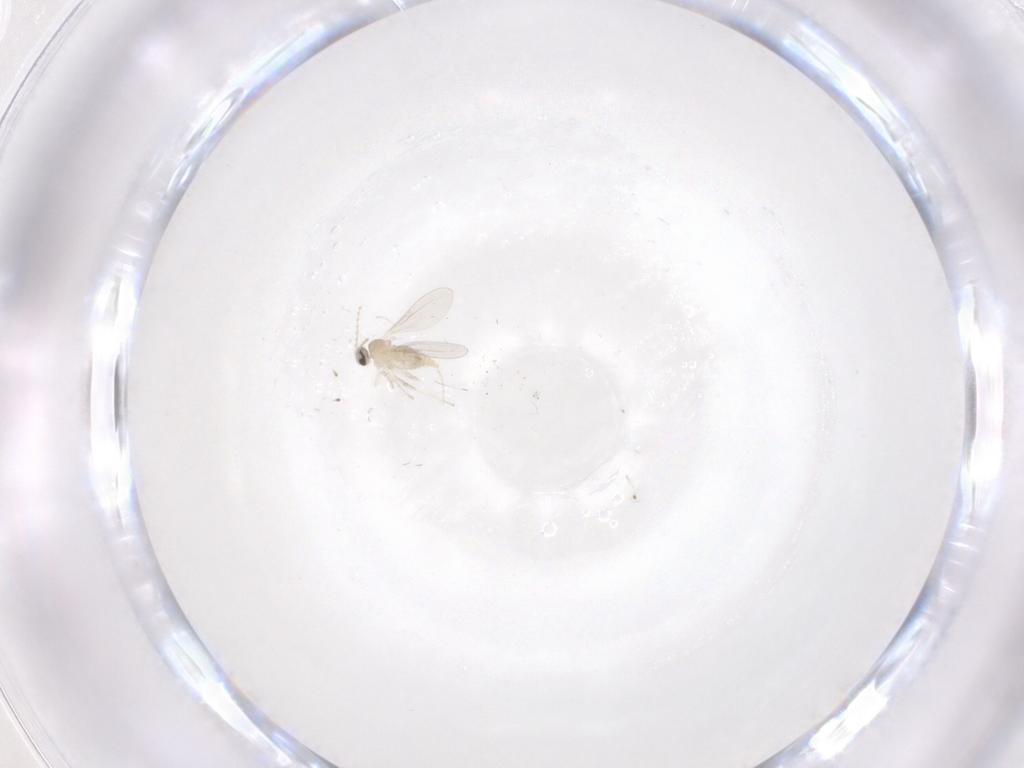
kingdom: Animalia
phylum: Arthropoda
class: Insecta
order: Diptera
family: Cecidomyiidae
